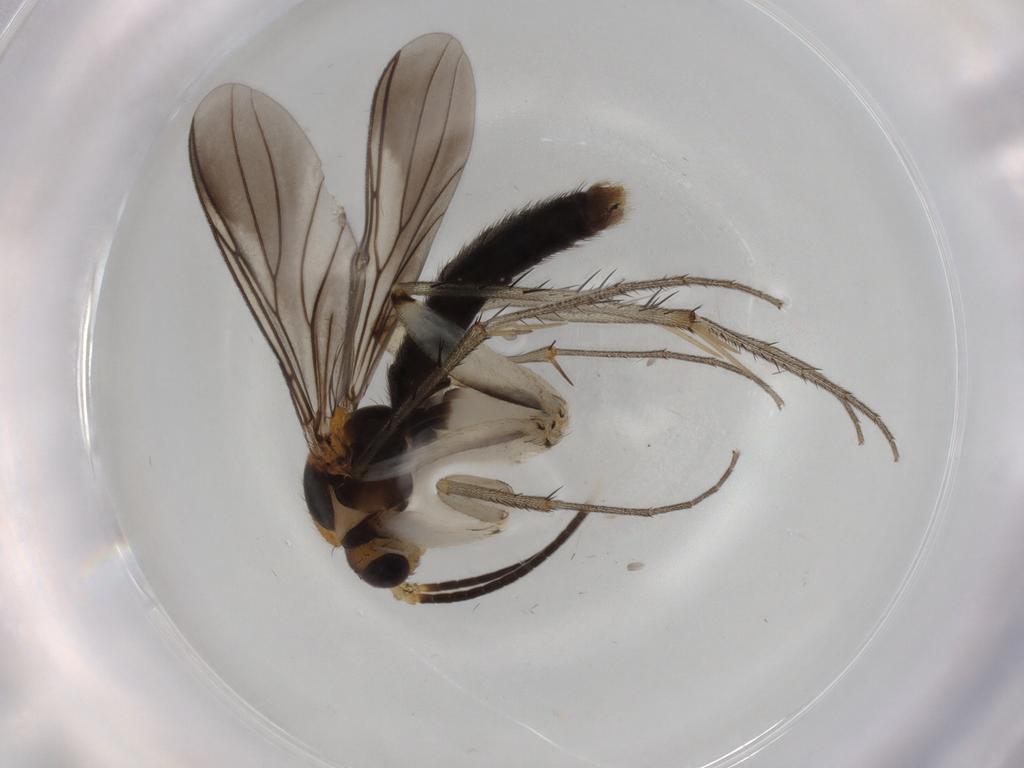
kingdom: Animalia
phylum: Arthropoda
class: Insecta
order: Diptera
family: Mycetophilidae
